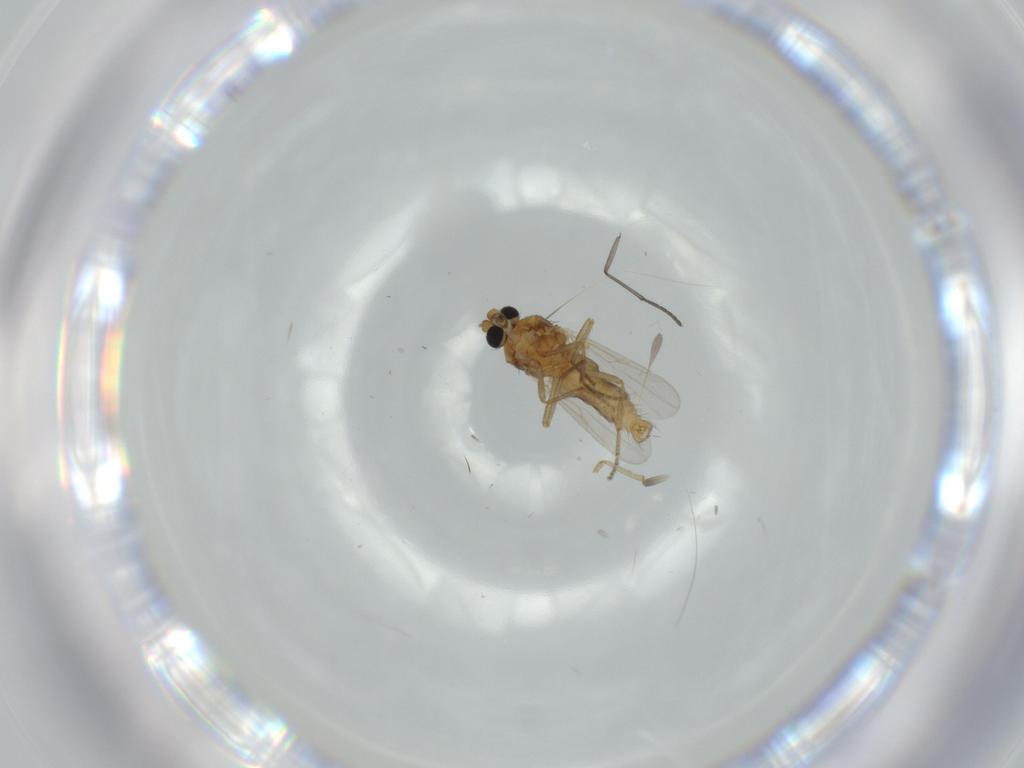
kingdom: Animalia
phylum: Arthropoda
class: Insecta
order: Diptera
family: Ceratopogonidae
